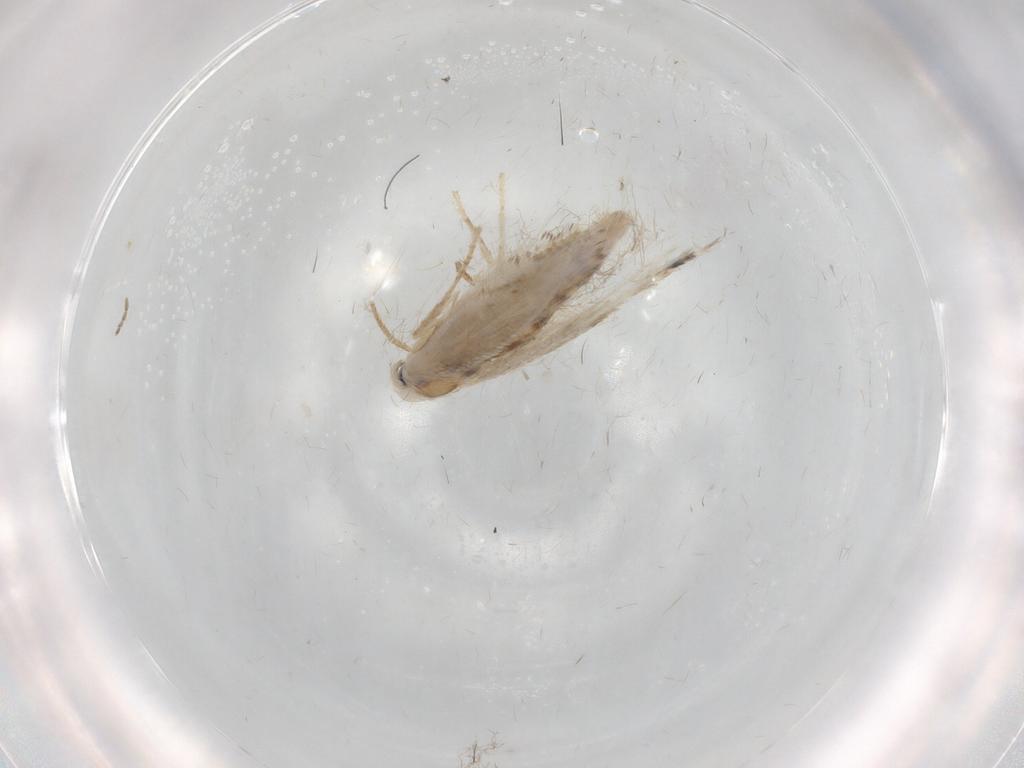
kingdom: Animalia
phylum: Arthropoda
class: Insecta
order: Lepidoptera
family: Gracillariidae
